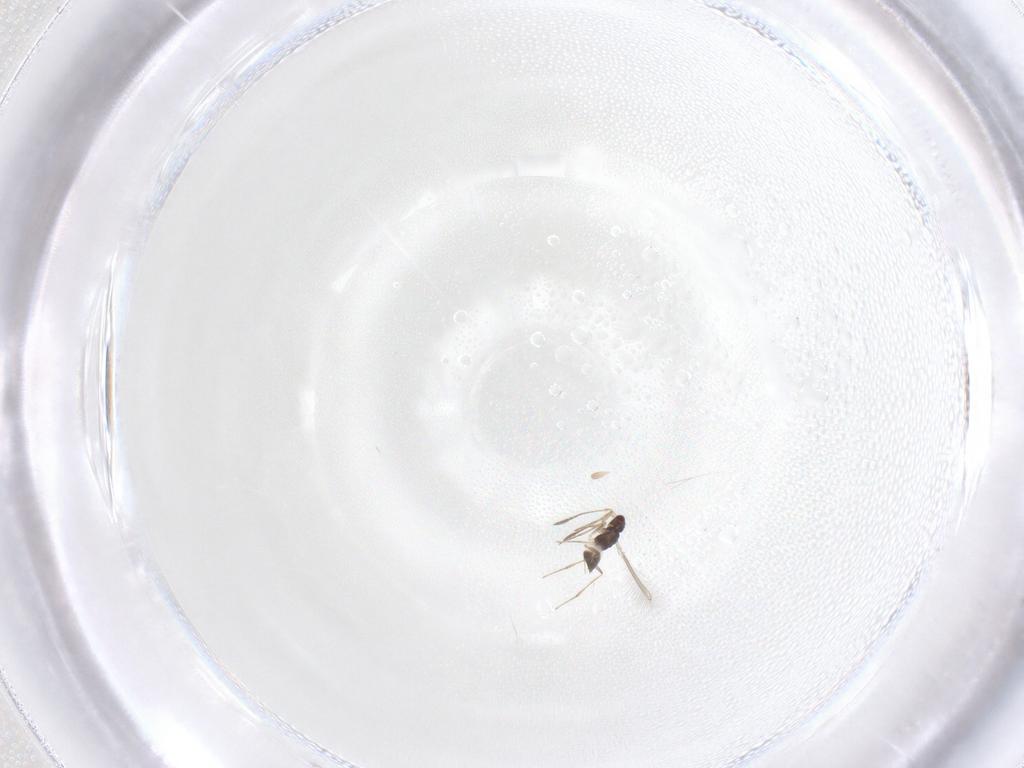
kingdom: Animalia
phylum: Arthropoda
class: Insecta
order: Hymenoptera
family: Mymaridae
